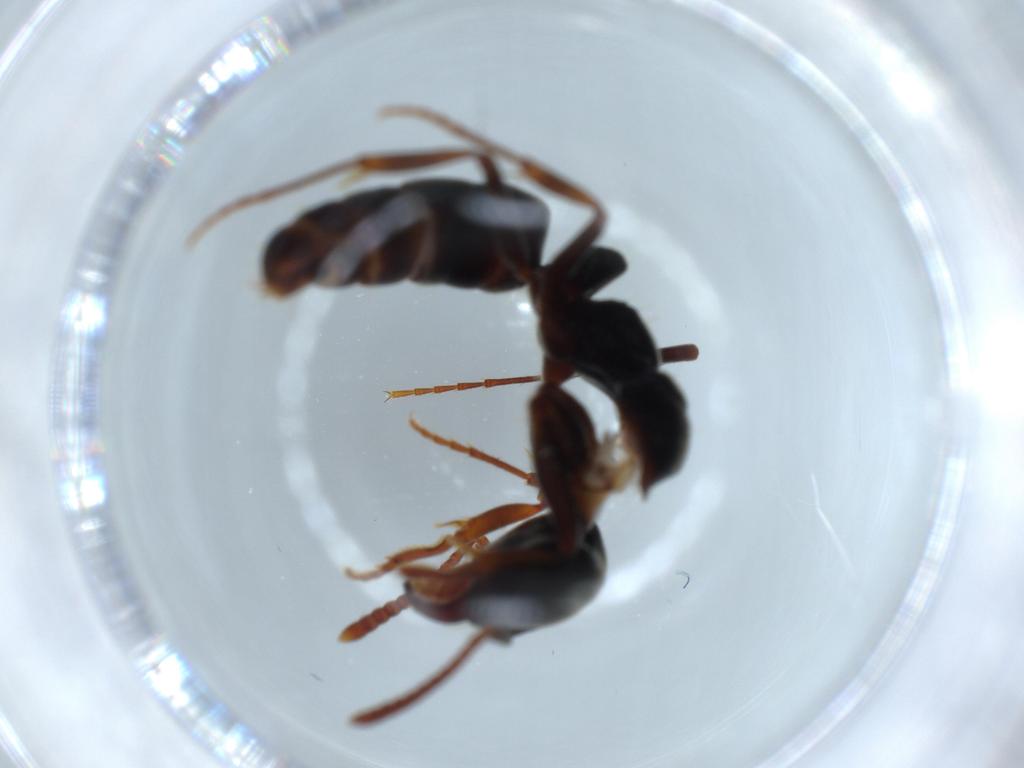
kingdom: Animalia
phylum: Arthropoda
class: Insecta
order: Hymenoptera
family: Formicidae
